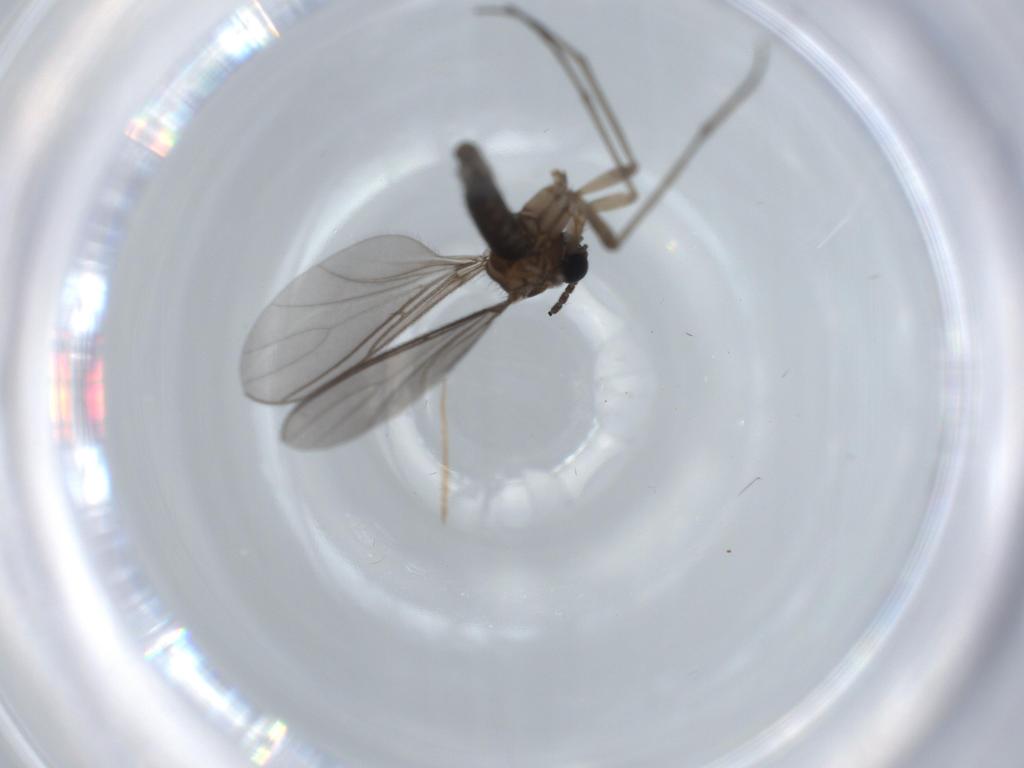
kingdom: Animalia
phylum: Arthropoda
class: Insecta
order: Diptera
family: Sciaridae
